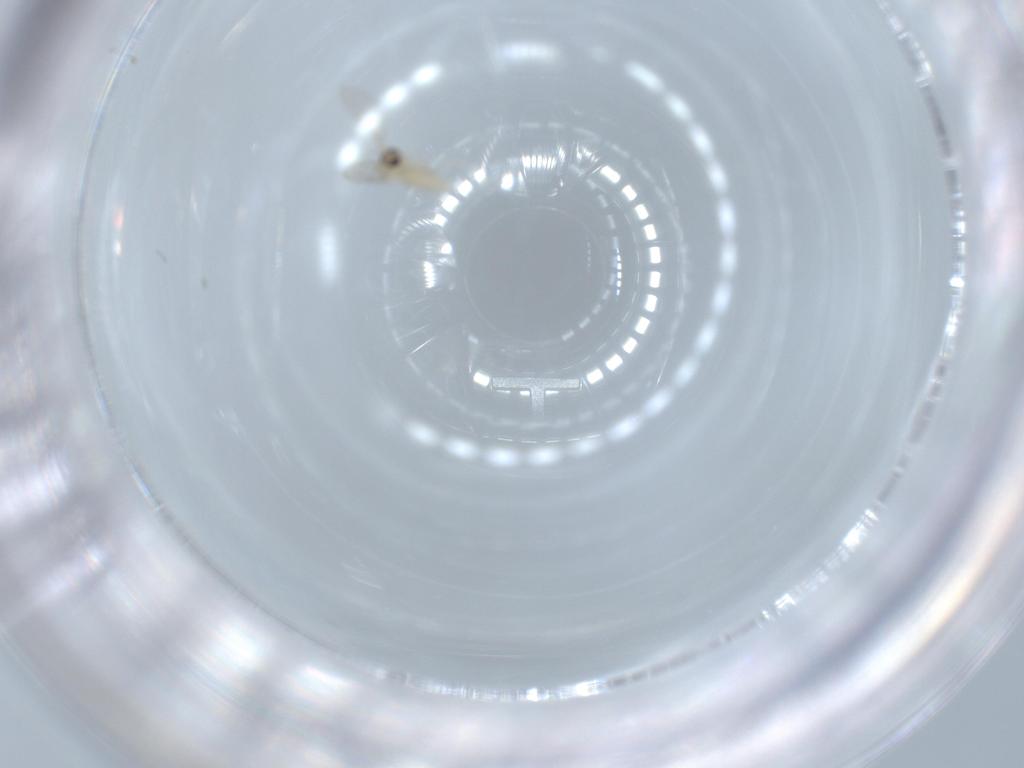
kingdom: Animalia
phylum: Arthropoda
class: Insecta
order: Diptera
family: Cecidomyiidae
